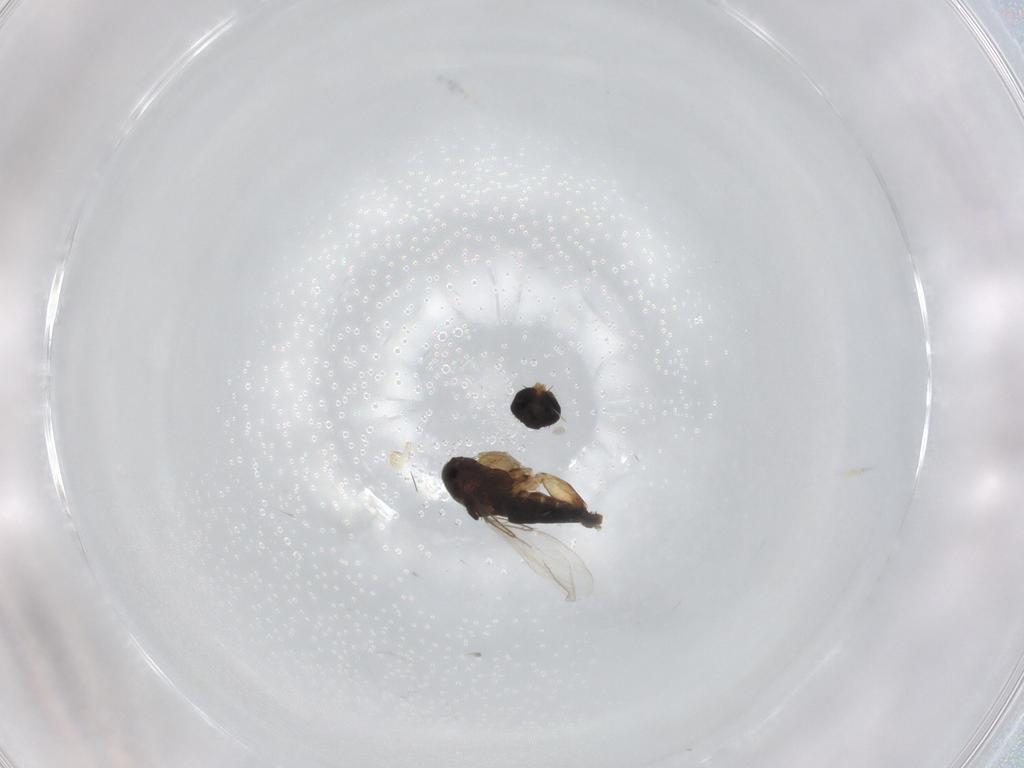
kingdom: Animalia
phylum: Arthropoda
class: Insecta
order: Diptera
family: Phoridae
